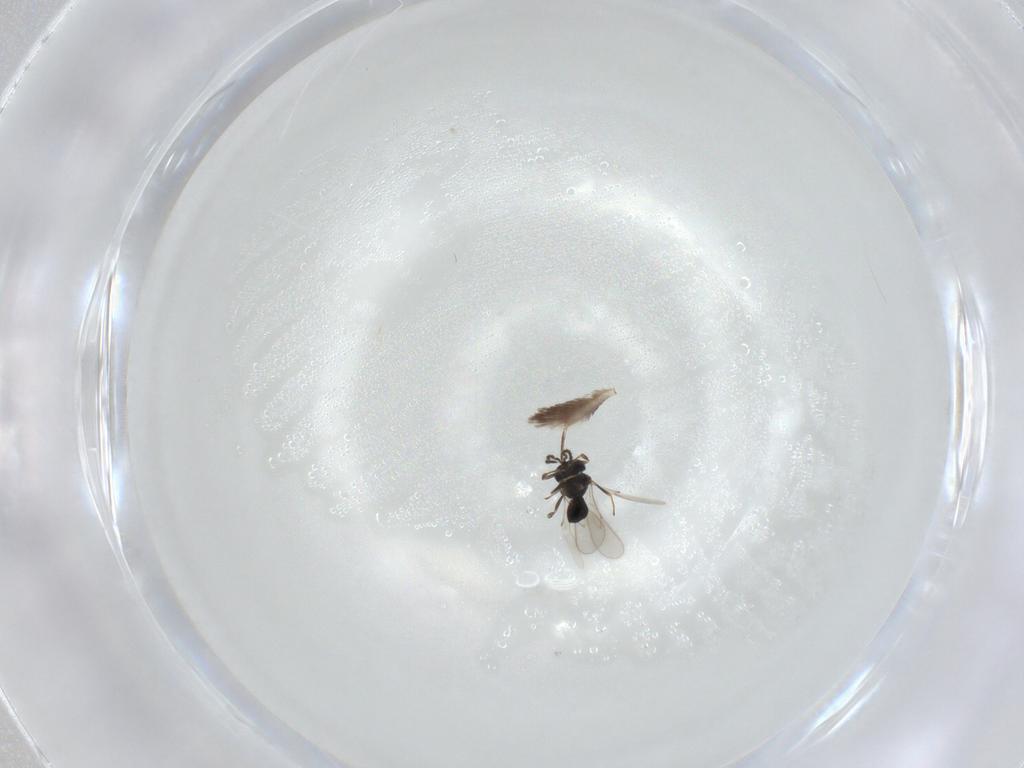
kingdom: Animalia
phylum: Arthropoda
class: Insecta
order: Hymenoptera
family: Scelionidae
